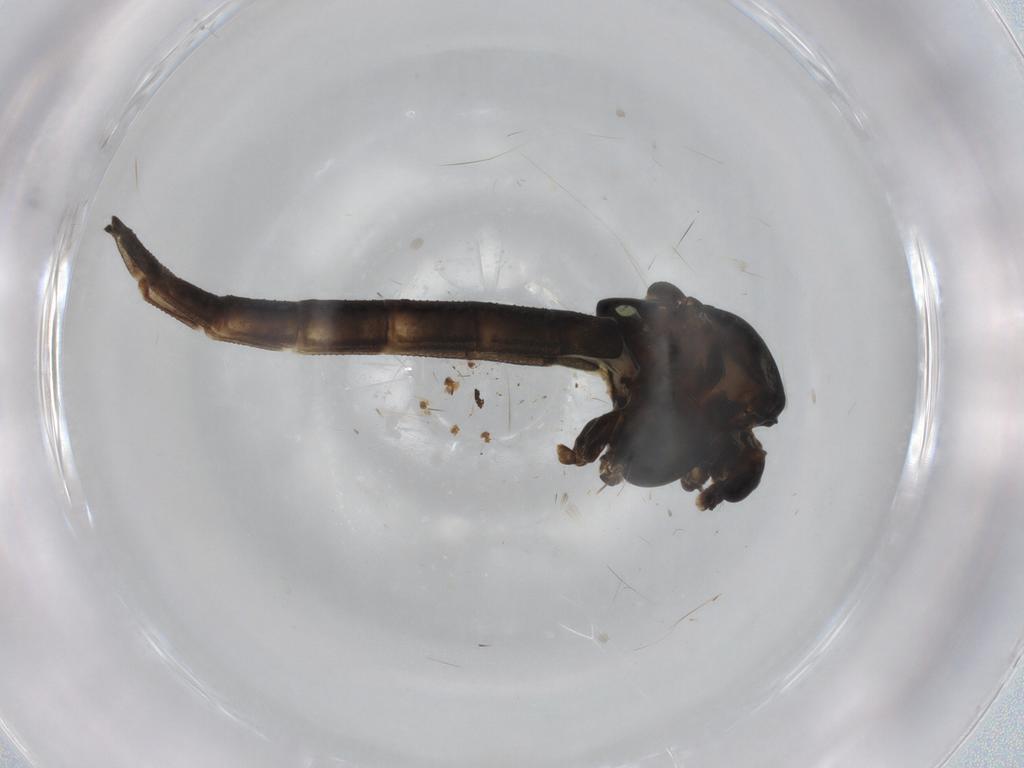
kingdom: Animalia
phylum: Arthropoda
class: Insecta
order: Diptera
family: Chironomidae
